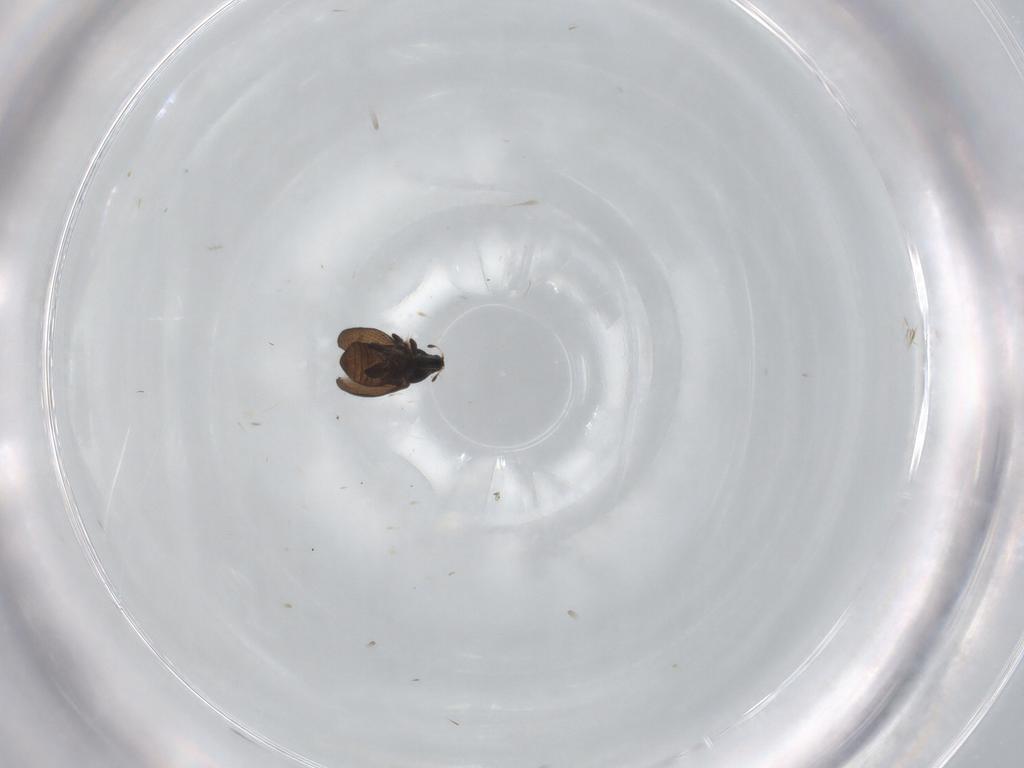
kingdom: Animalia
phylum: Arthropoda
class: Insecta
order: Coleoptera
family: Curculionidae
